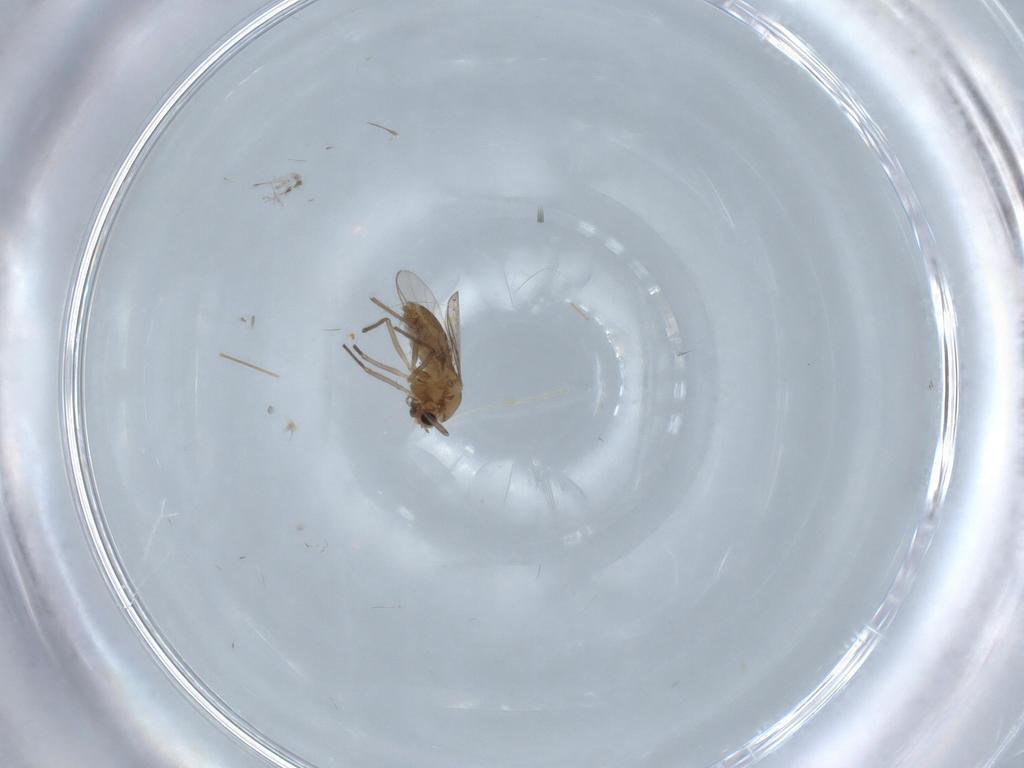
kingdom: Animalia
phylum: Arthropoda
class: Insecta
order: Diptera
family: Chironomidae
